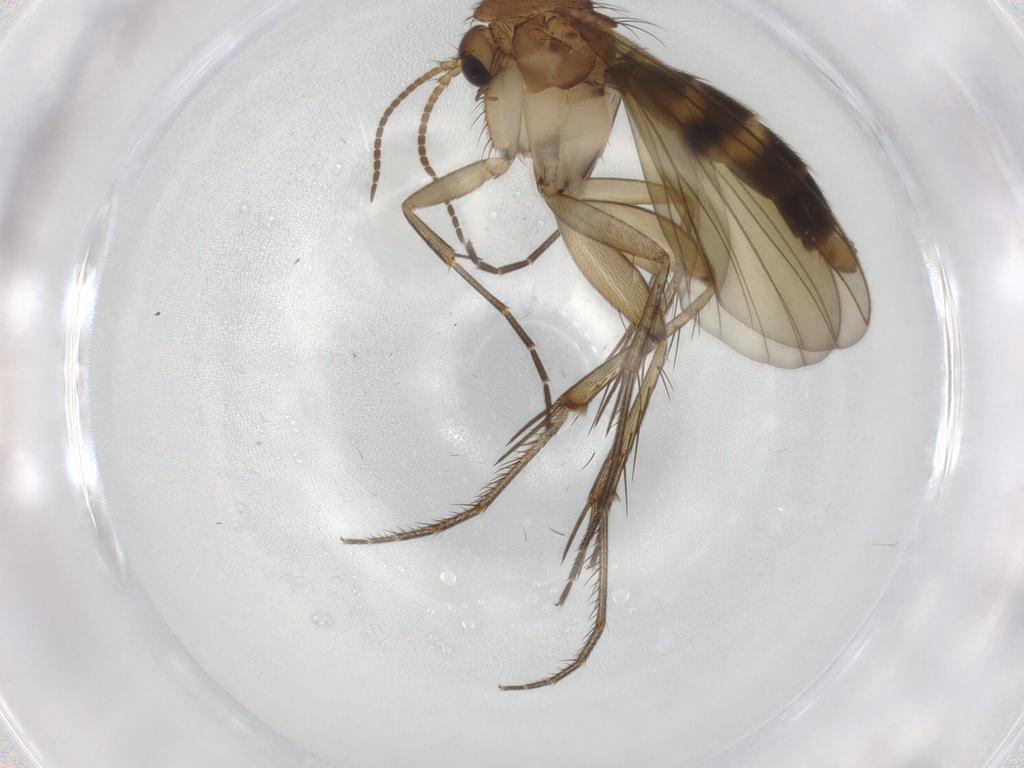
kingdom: Animalia
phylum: Arthropoda
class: Insecta
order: Diptera
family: Mycetophilidae
